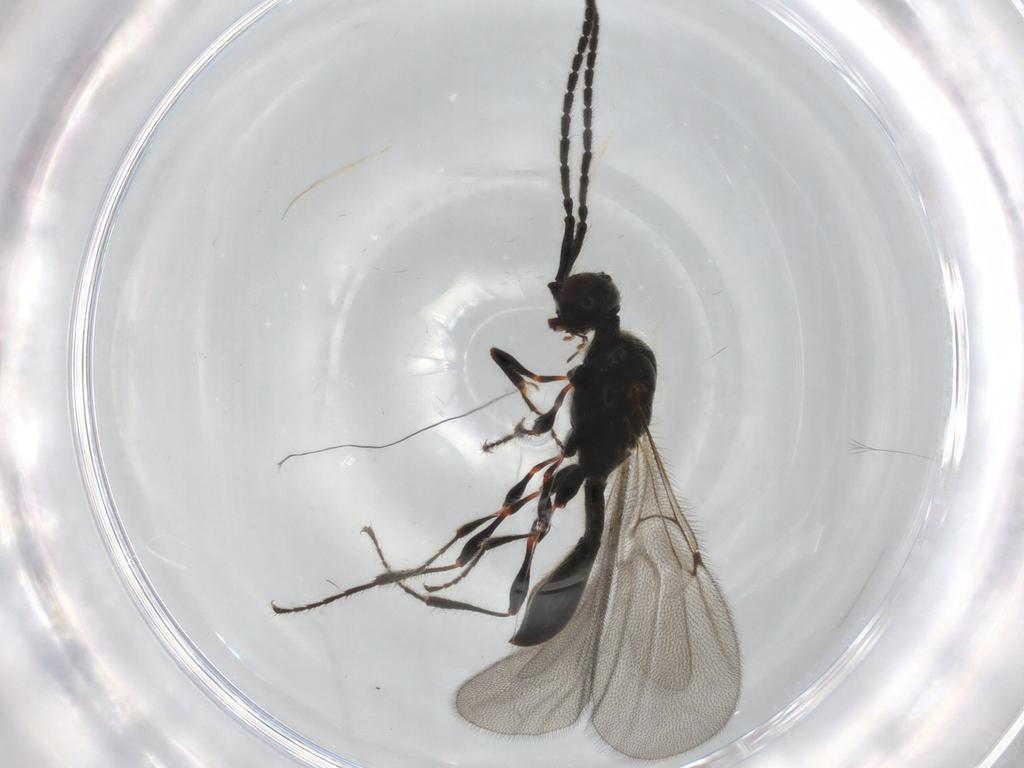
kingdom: Animalia
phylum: Arthropoda
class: Insecta
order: Hymenoptera
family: Diapriidae
